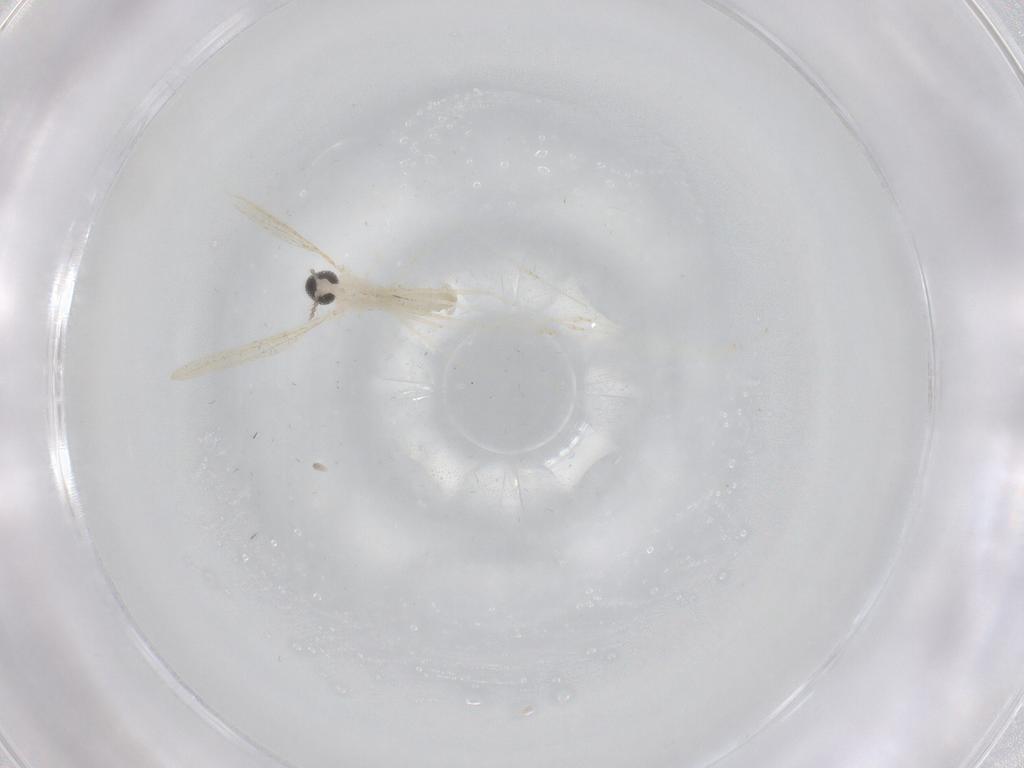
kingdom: Animalia
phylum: Arthropoda
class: Insecta
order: Diptera
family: Cecidomyiidae
